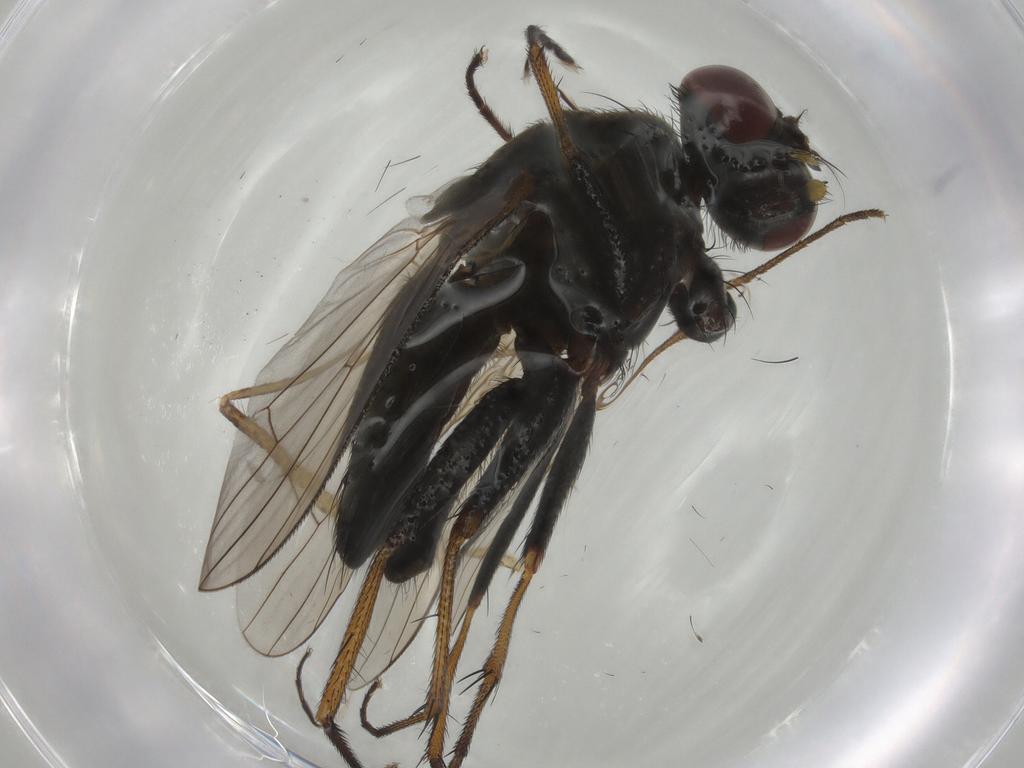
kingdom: Animalia
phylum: Arthropoda
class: Insecta
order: Diptera
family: Muscidae
